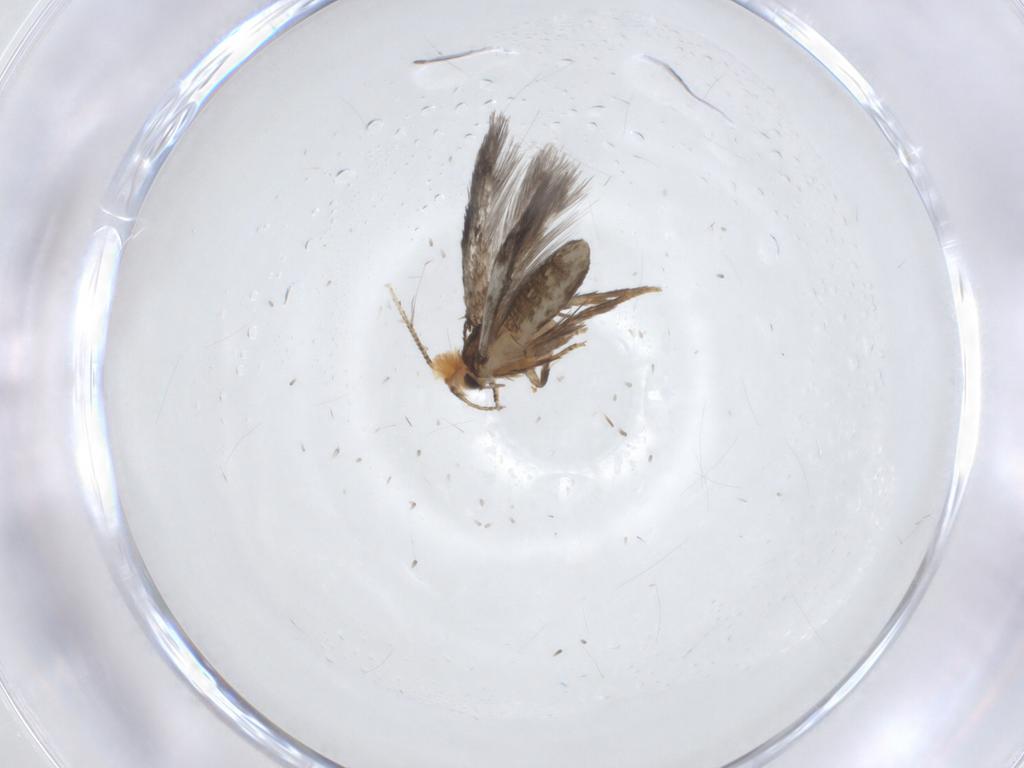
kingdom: Animalia
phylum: Arthropoda
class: Insecta
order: Lepidoptera
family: Nepticulidae
